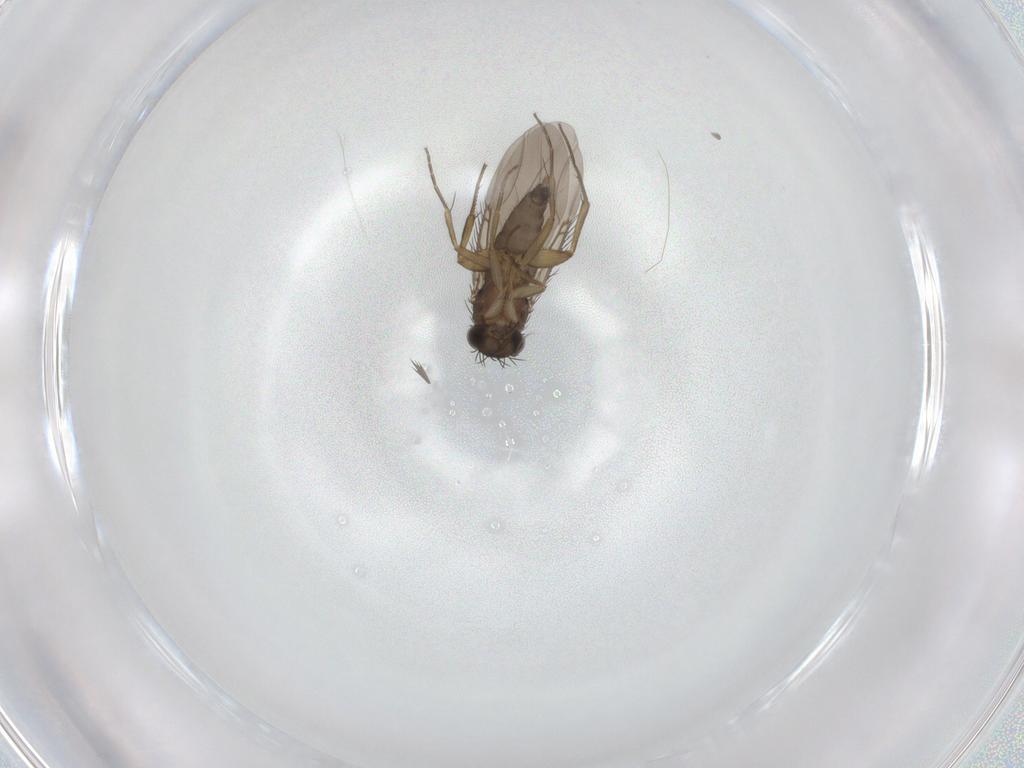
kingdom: Animalia
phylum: Arthropoda
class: Insecta
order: Diptera
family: Phoridae
